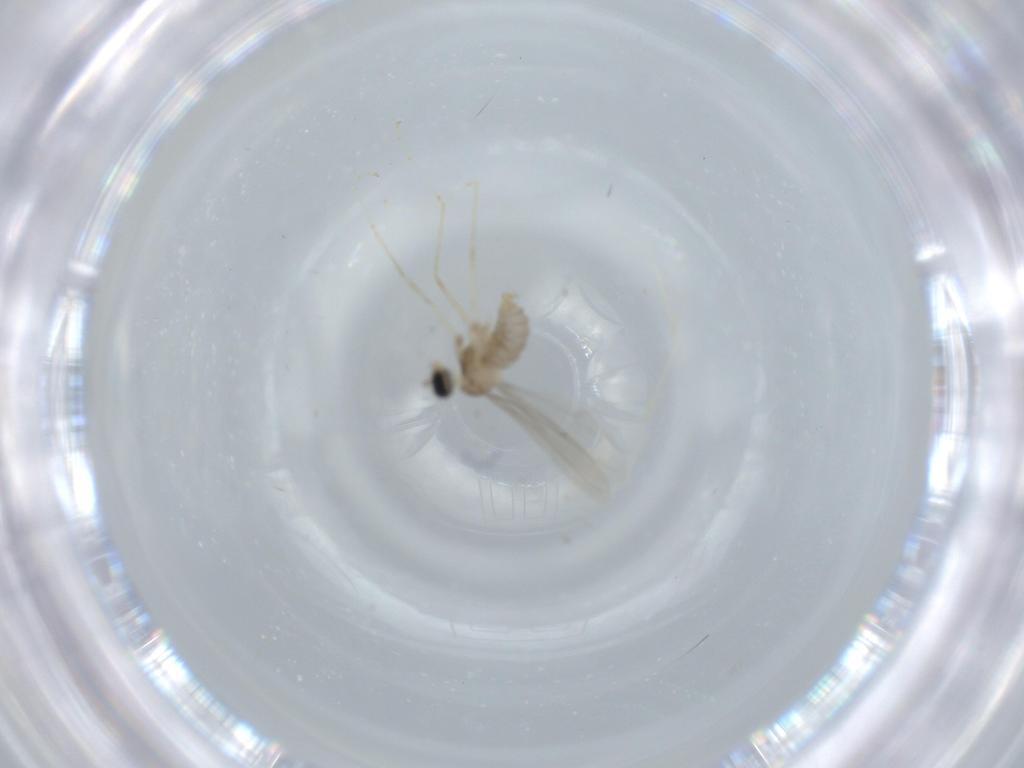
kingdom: Animalia
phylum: Arthropoda
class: Insecta
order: Diptera
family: Cecidomyiidae
